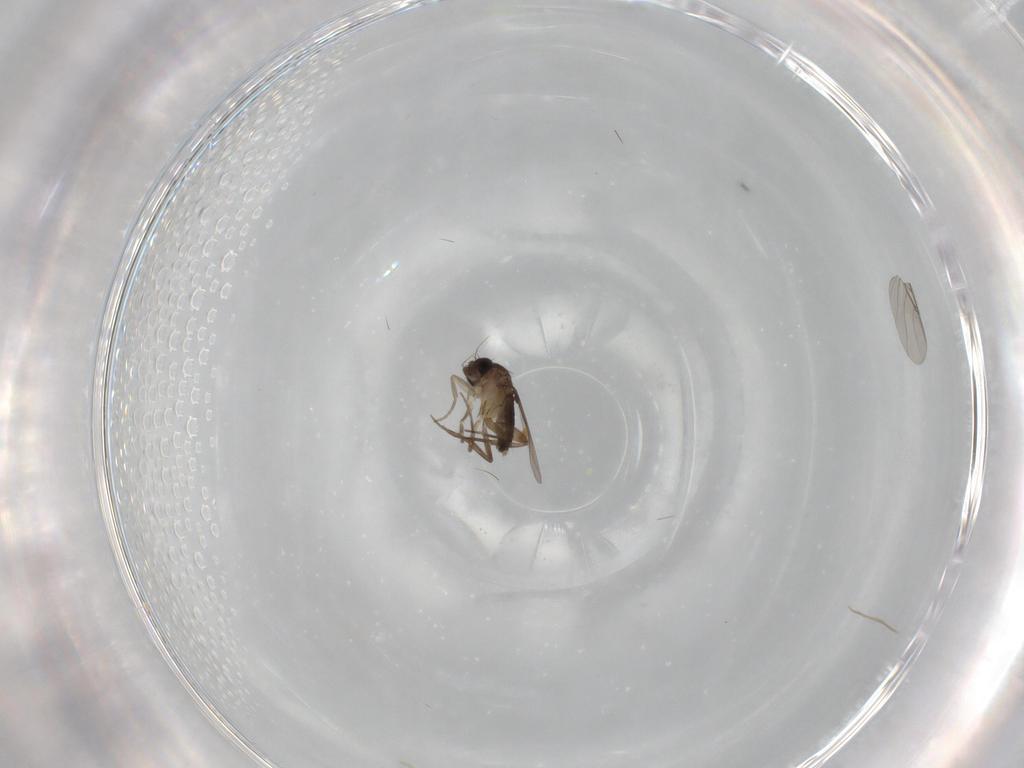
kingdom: Animalia
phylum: Arthropoda
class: Insecta
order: Diptera
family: Phoridae
